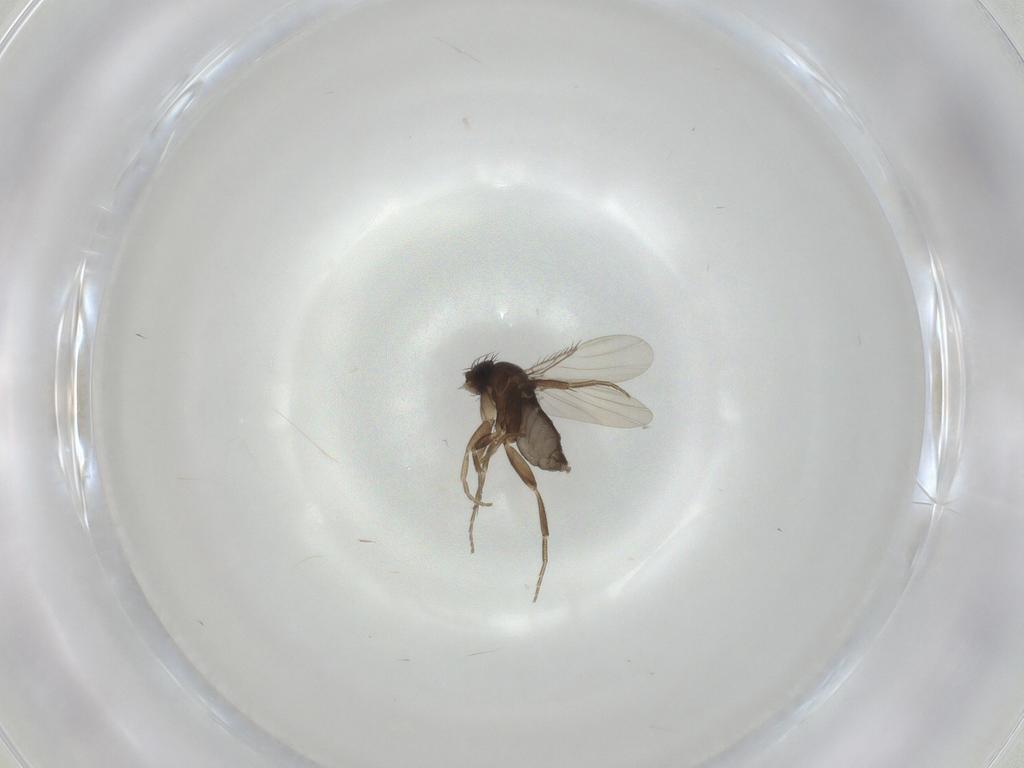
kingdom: Animalia
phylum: Arthropoda
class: Insecta
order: Diptera
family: Phoridae
